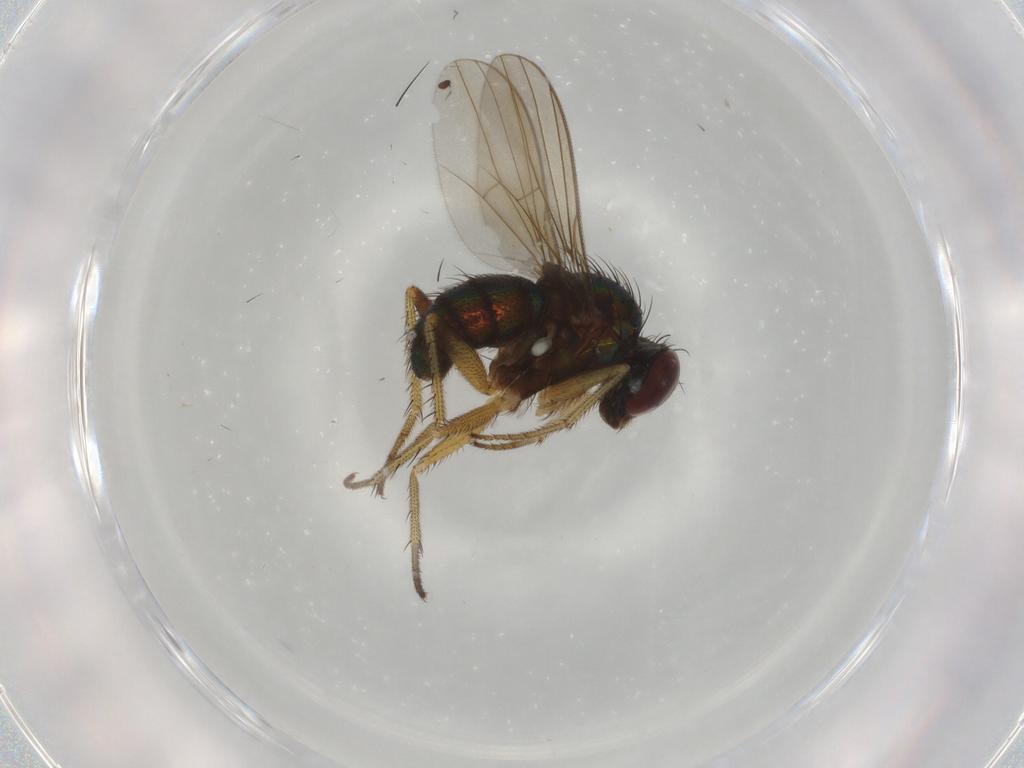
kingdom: Animalia
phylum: Arthropoda
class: Insecta
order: Diptera
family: Dolichopodidae
